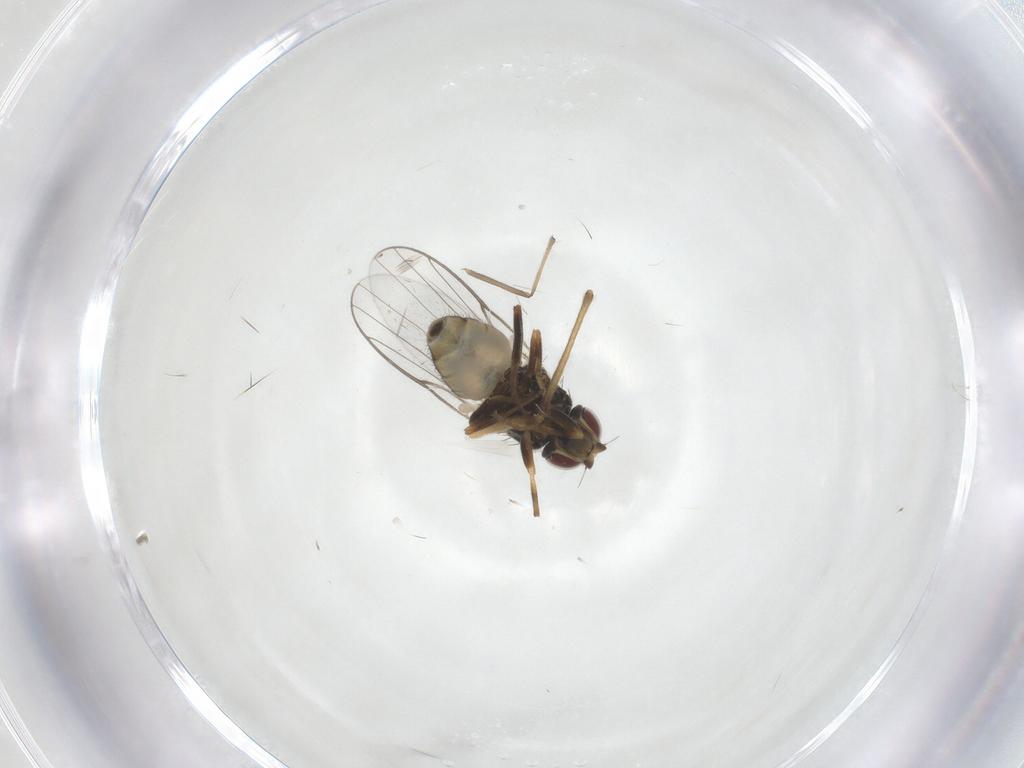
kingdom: Animalia
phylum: Arthropoda
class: Insecta
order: Diptera
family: Chloropidae
